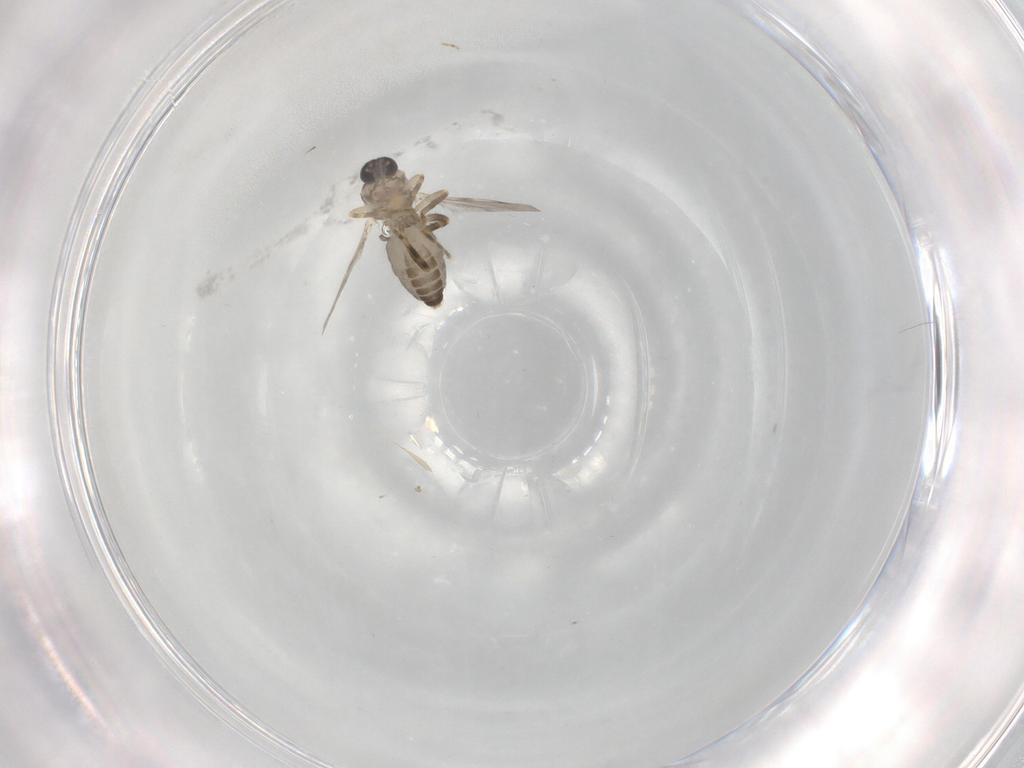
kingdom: Animalia
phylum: Arthropoda
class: Insecta
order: Diptera
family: Ceratopogonidae
